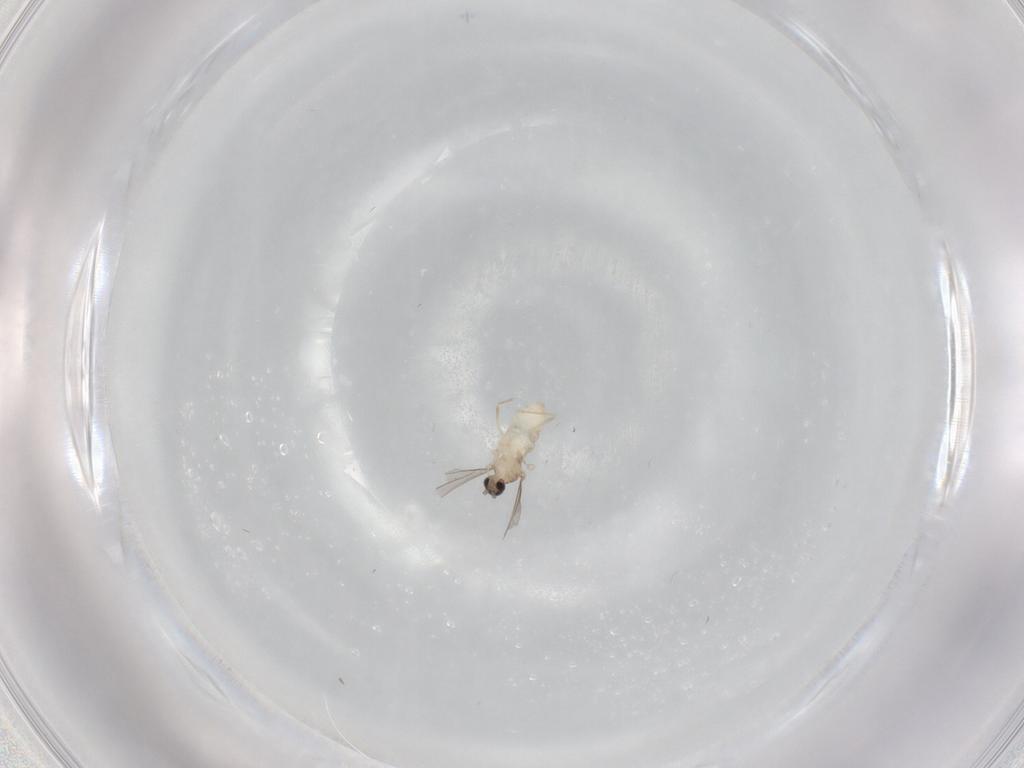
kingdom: Animalia
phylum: Arthropoda
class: Insecta
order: Diptera
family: Cecidomyiidae
